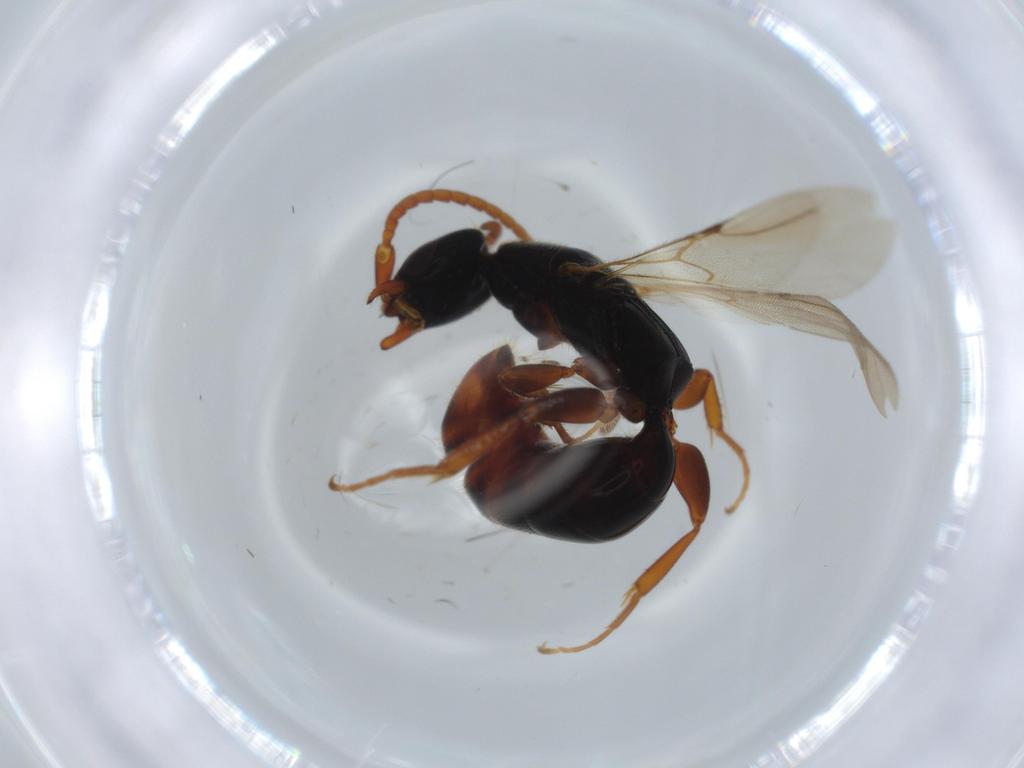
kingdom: Animalia
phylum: Arthropoda
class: Insecta
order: Hymenoptera
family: Bethylidae
